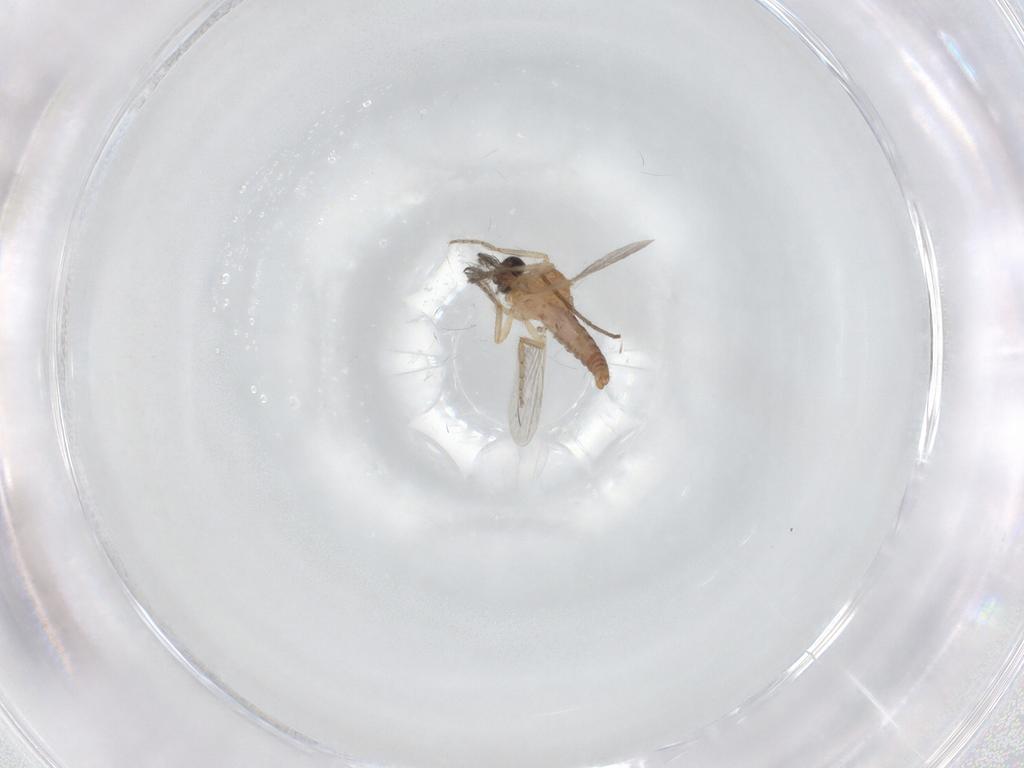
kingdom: Animalia
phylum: Arthropoda
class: Insecta
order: Diptera
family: Ceratopogonidae
